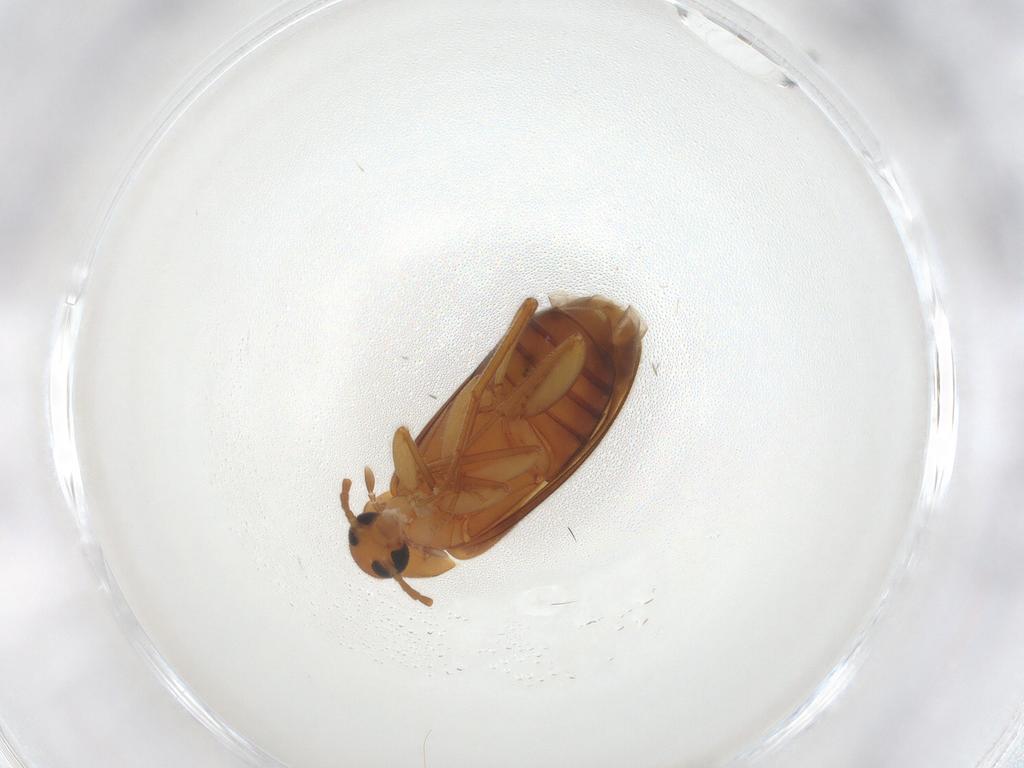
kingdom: Animalia
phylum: Arthropoda
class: Insecta
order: Coleoptera
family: Scraptiidae
